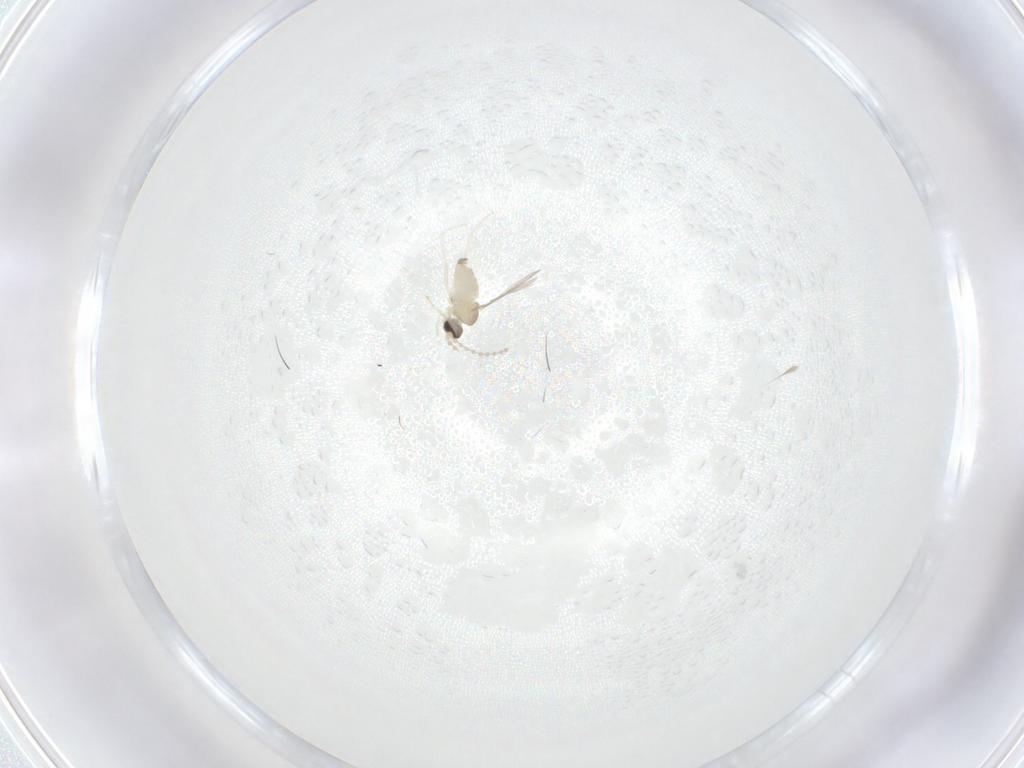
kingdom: Animalia
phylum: Arthropoda
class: Insecta
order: Diptera
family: Cecidomyiidae
